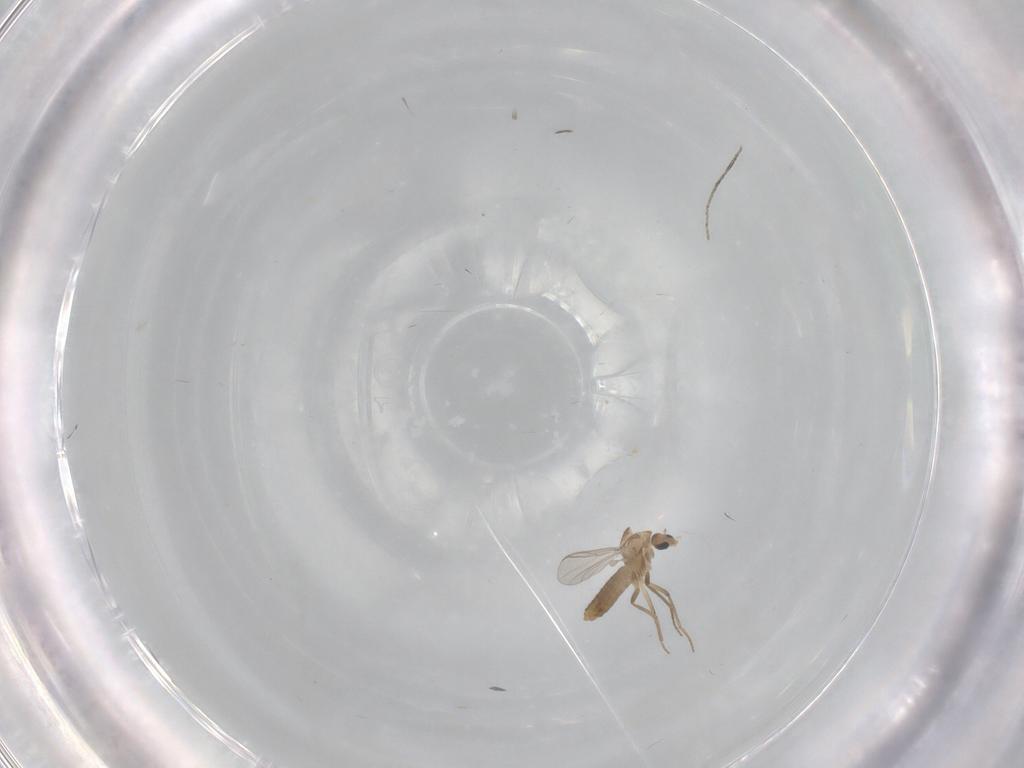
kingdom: Animalia
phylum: Arthropoda
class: Insecta
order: Diptera
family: Chironomidae
